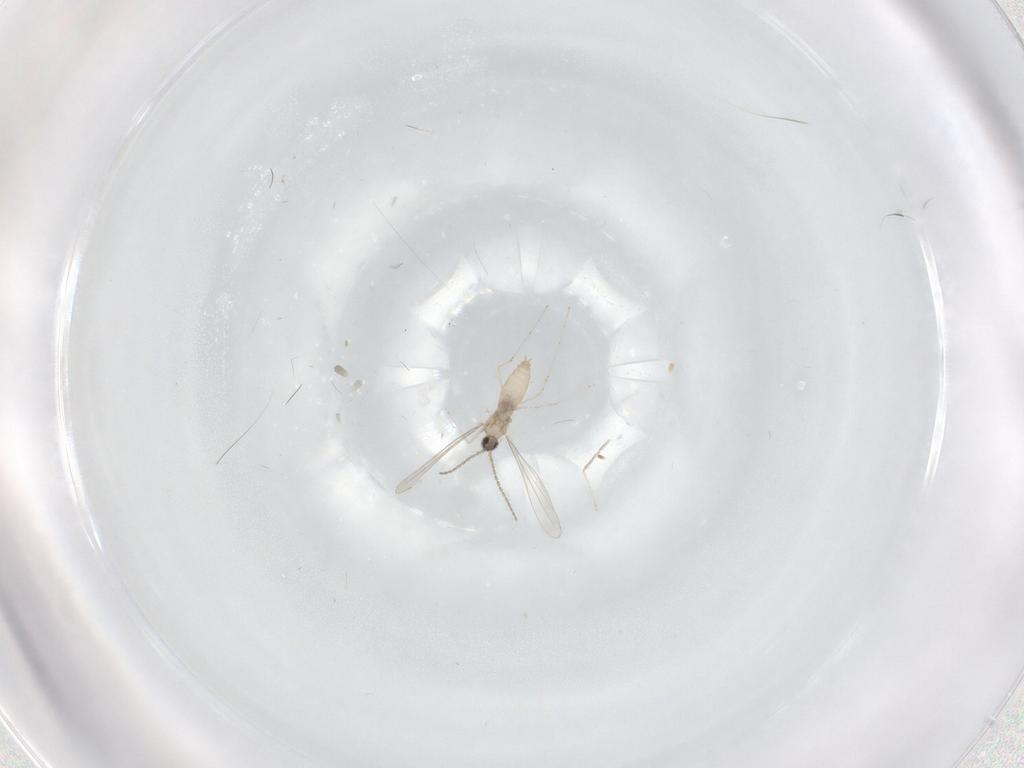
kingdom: Animalia
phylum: Arthropoda
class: Insecta
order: Diptera
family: Cecidomyiidae
